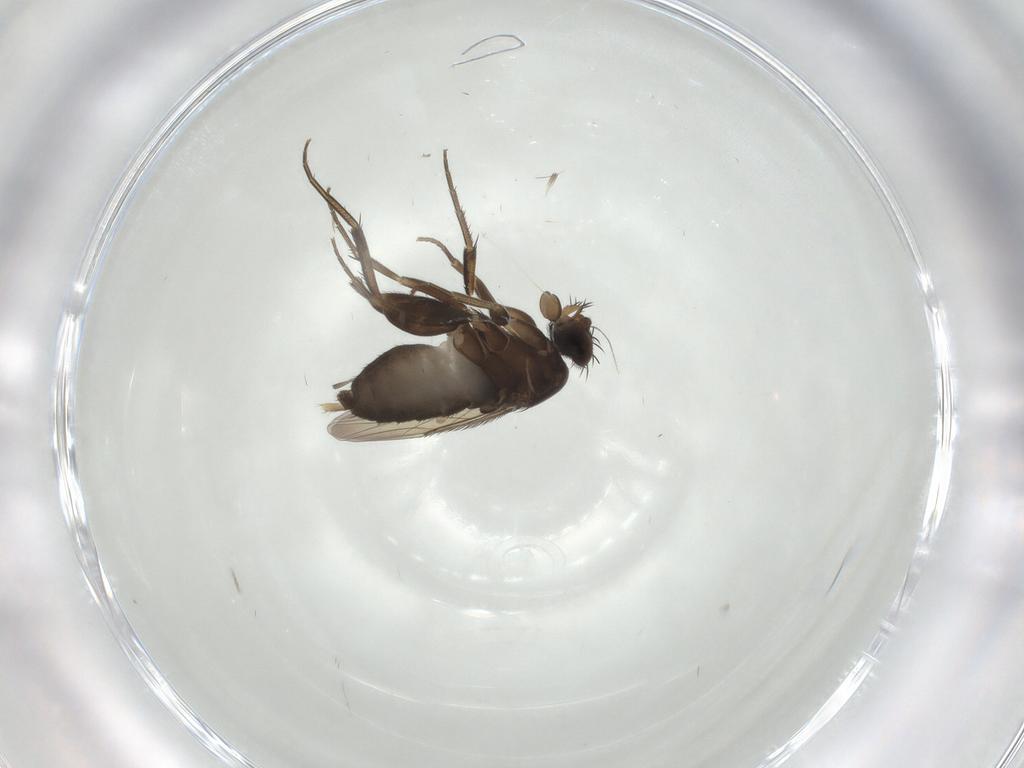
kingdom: Animalia
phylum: Arthropoda
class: Insecta
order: Diptera
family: Phoridae
